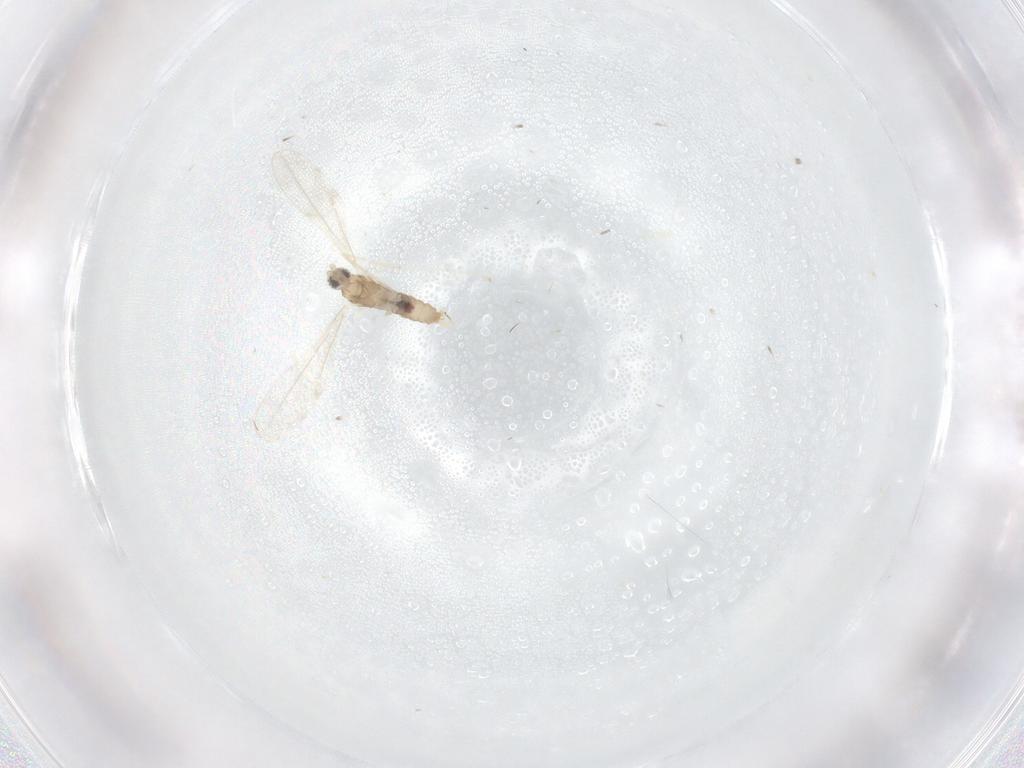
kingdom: Animalia
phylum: Arthropoda
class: Insecta
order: Diptera
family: Cecidomyiidae
